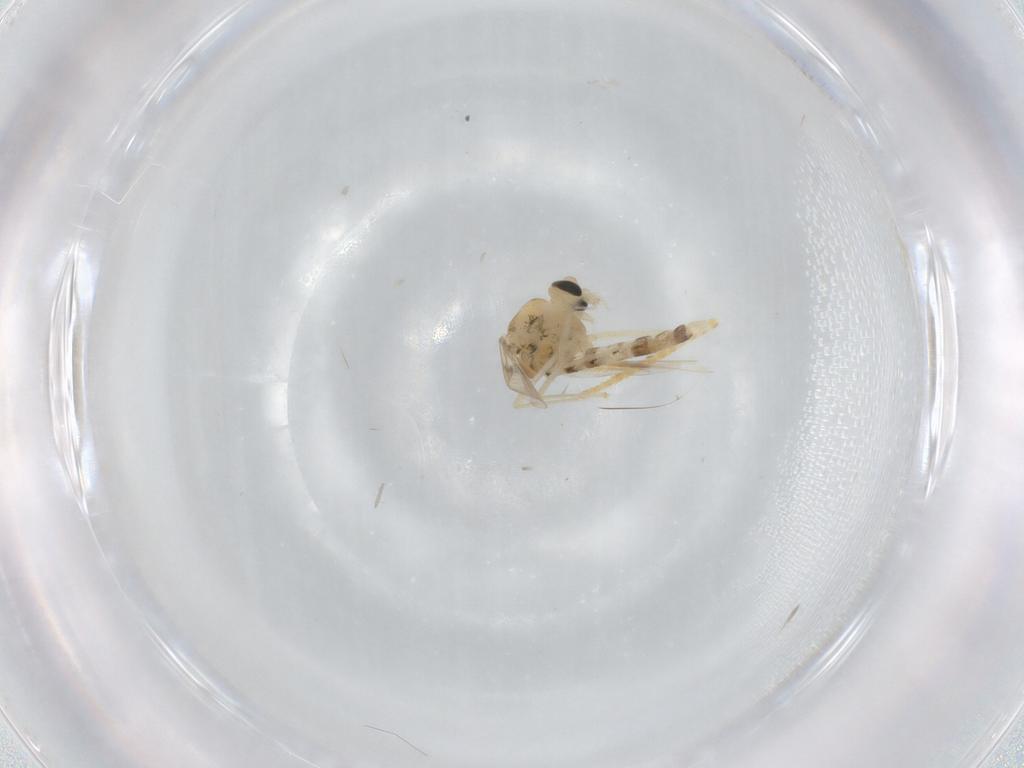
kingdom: Animalia
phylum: Arthropoda
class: Insecta
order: Diptera
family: Chironomidae
